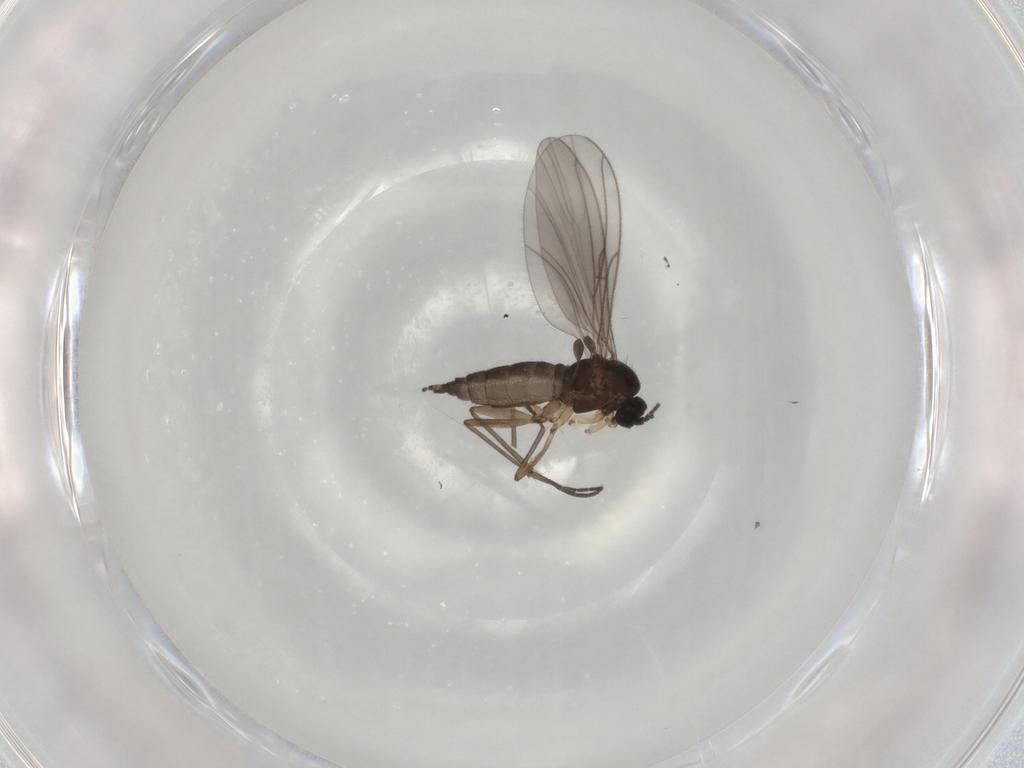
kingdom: Animalia
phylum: Arthropoda
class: Insecta
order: Diptera
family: Sciaridae
